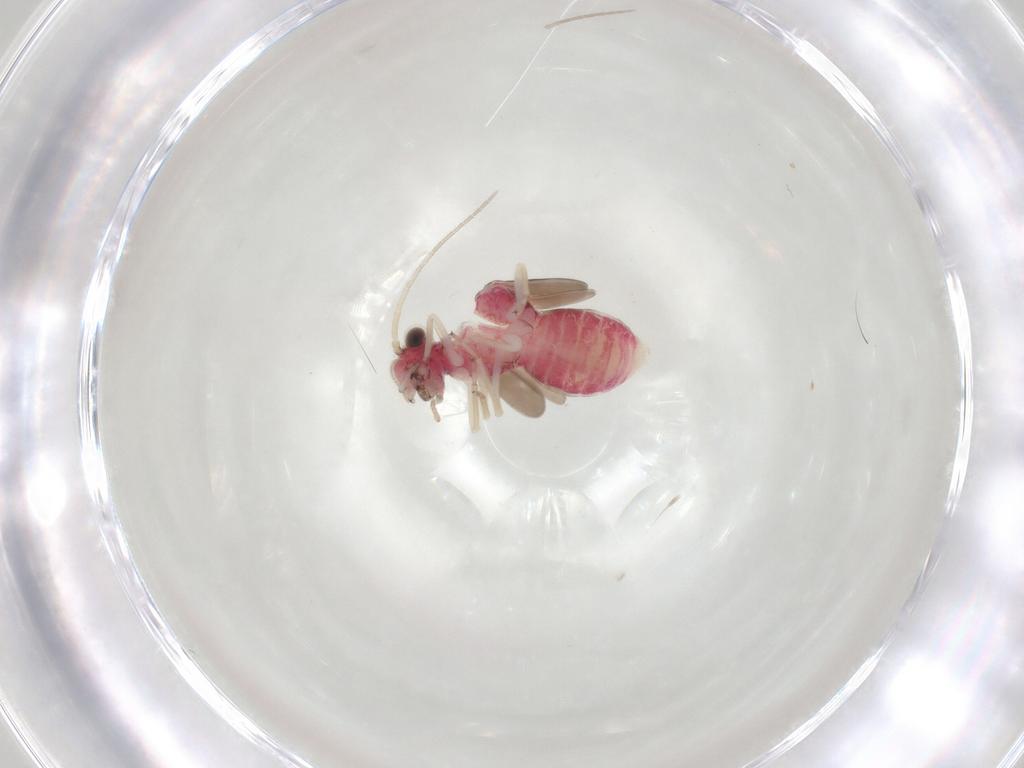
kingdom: Animalia
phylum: Arthropoda
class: Insecta
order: Psocodea
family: Caeciliusidae
